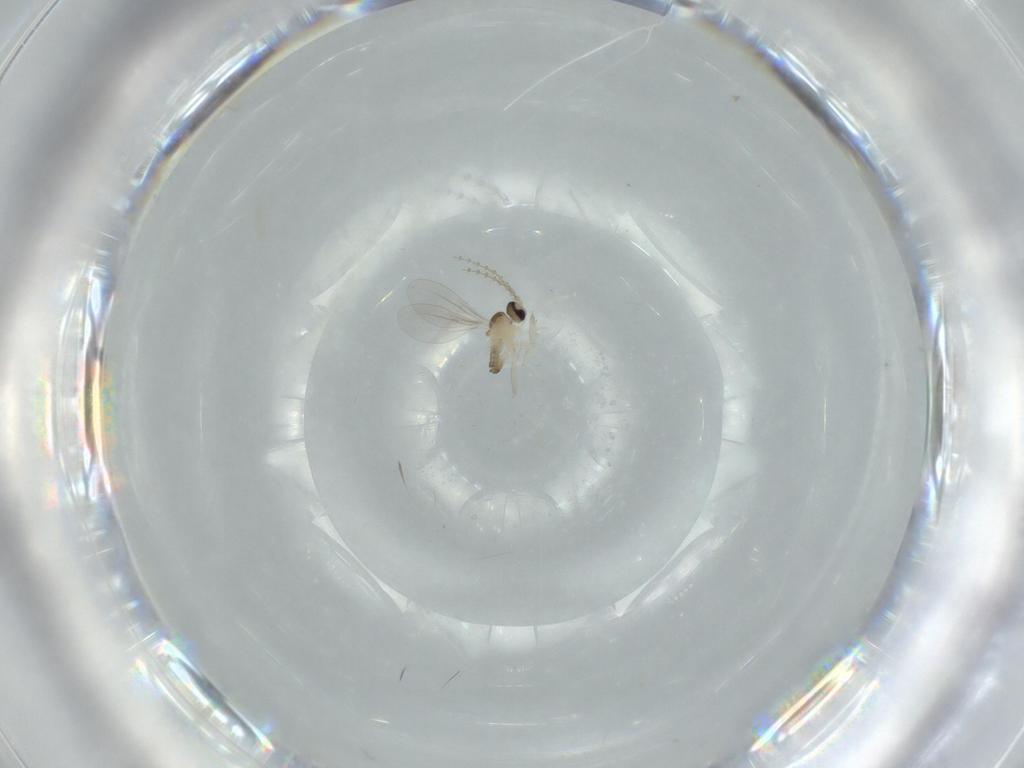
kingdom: Animalia
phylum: Arthropoda
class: Insecta
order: Diptera
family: Cecidomyiidae
